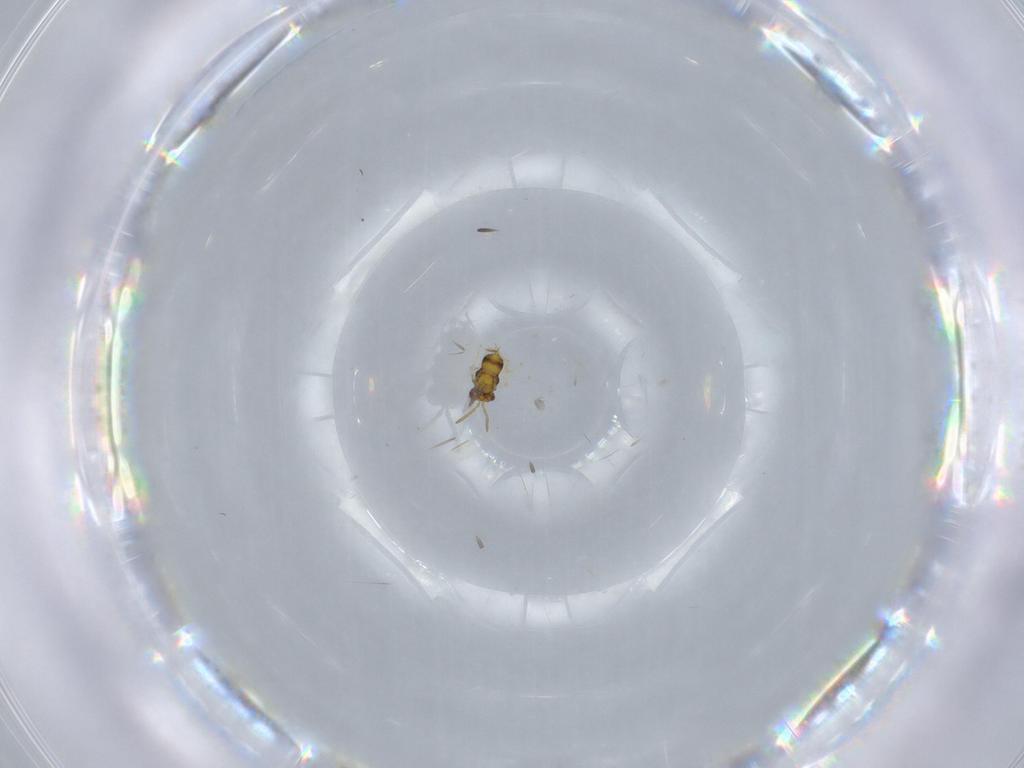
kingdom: Animalia
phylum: Arthropoda
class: Insecta
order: Hymenoptera
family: Aphelinidae
